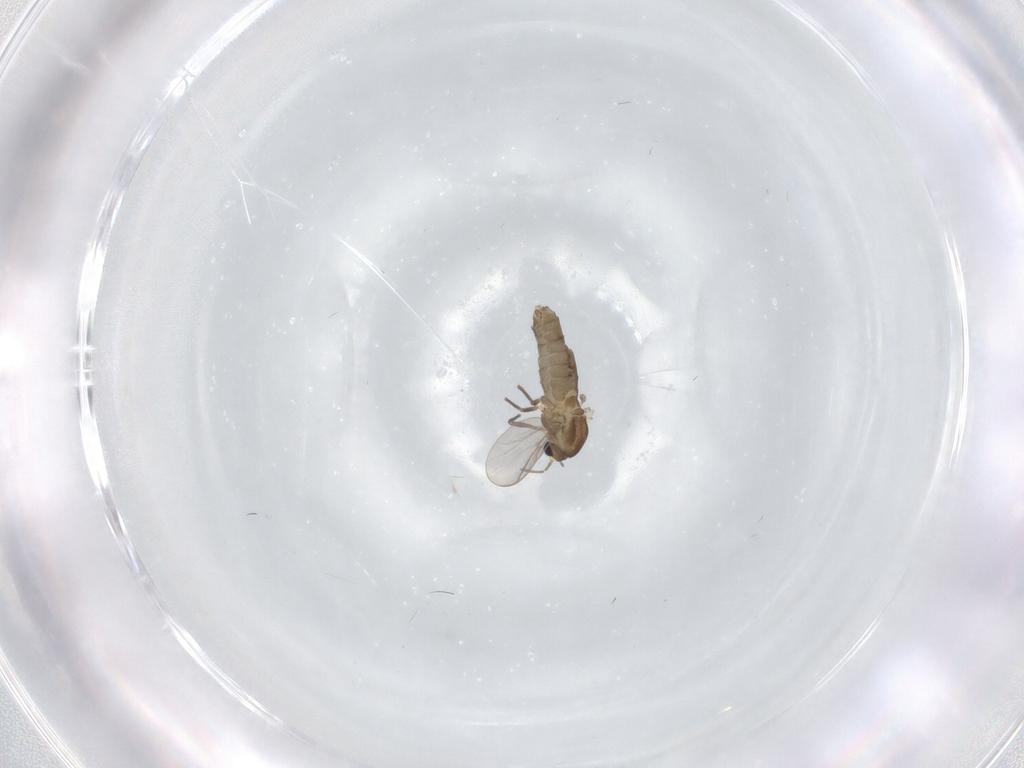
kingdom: Animalia
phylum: Arthropoda
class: Insecta
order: Diptera
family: Chironomidae
